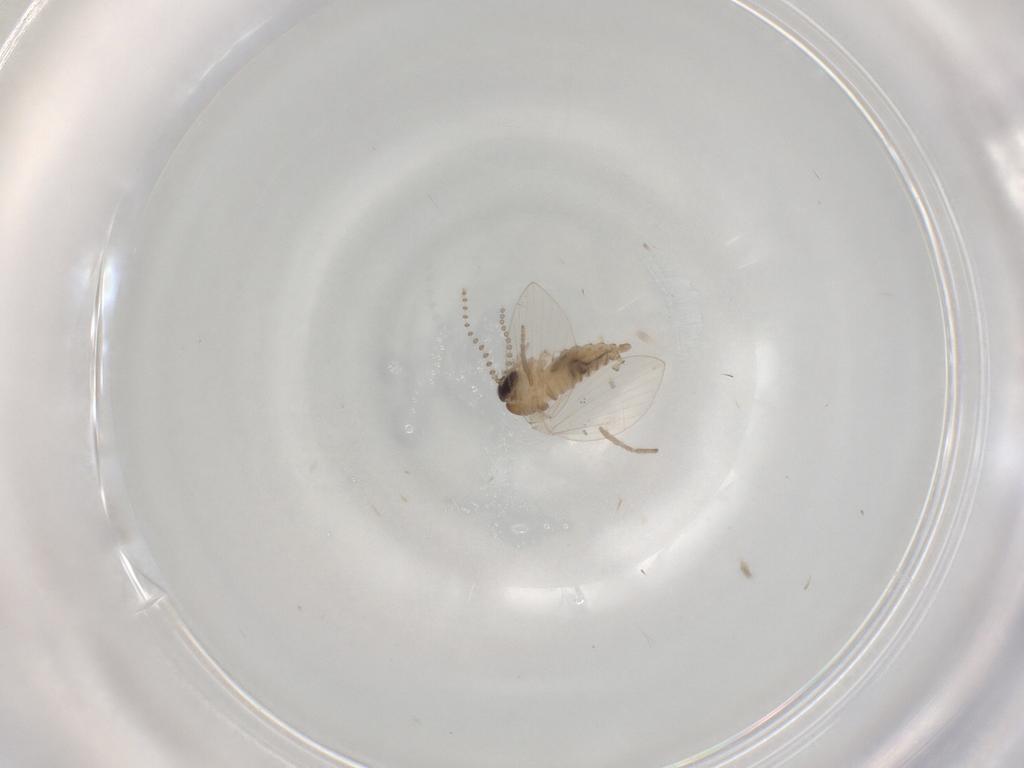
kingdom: Animalia
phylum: Arthropoda
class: Insecta
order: Diptera
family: Psychodidae
